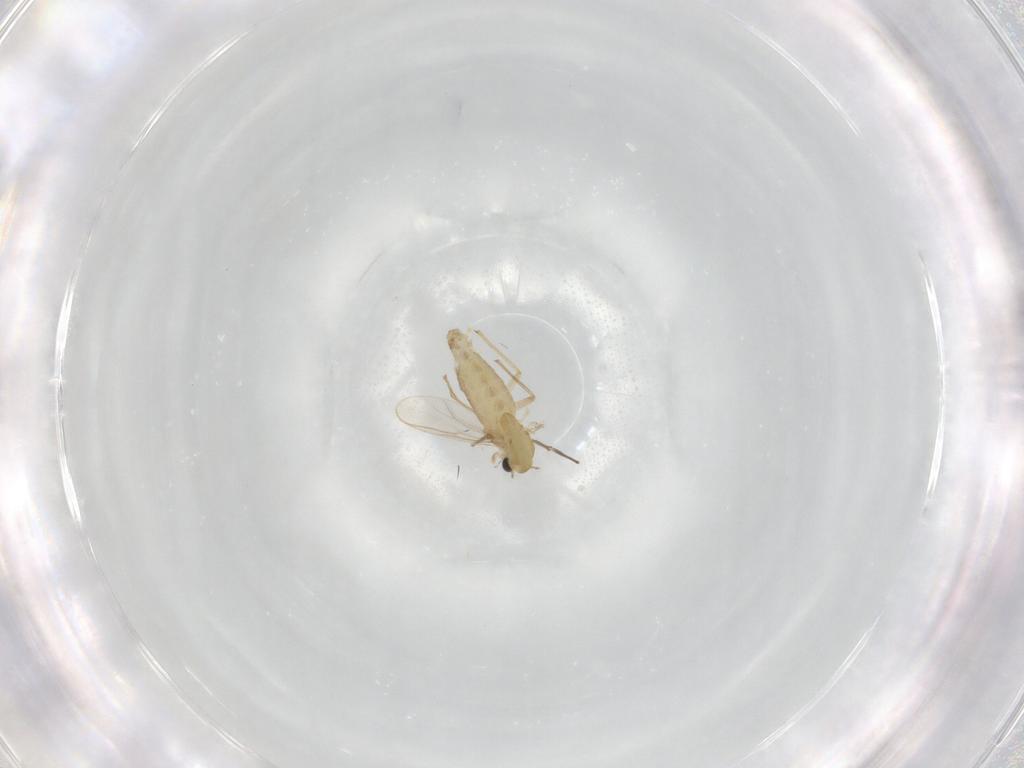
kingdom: Animalia
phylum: Arthropoda
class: Insecta
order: Diptera
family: Chironomidae
